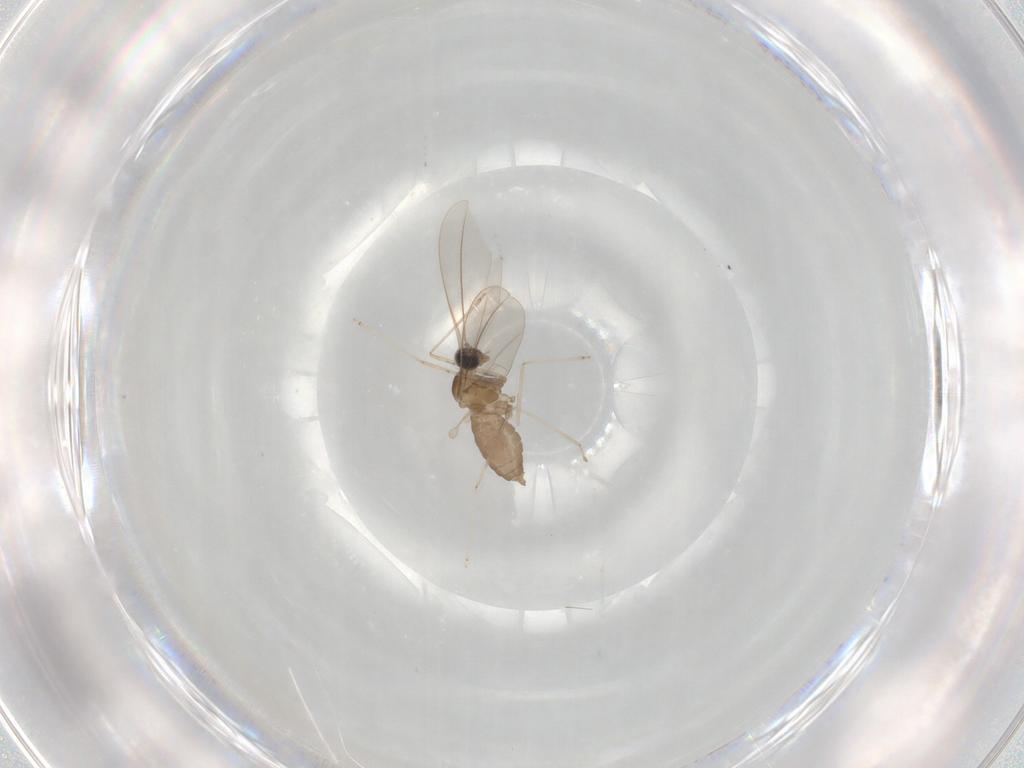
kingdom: Animalia
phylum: Arthropoda
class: Insecta
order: Diptera
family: Cecidomyiidae
